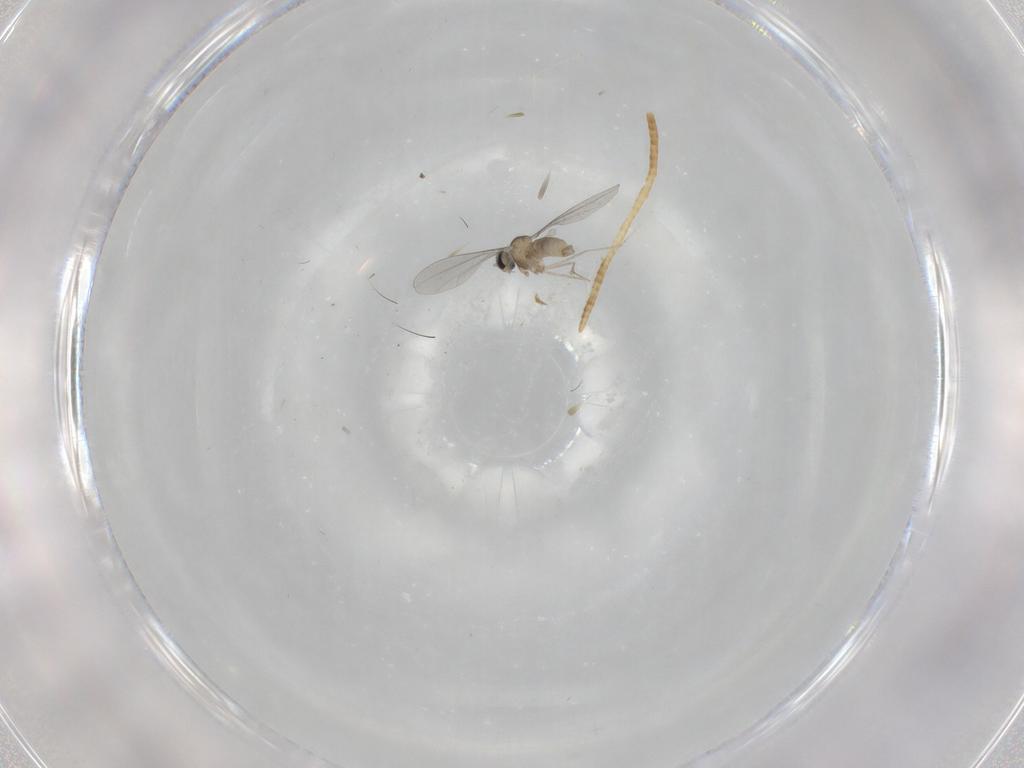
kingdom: Animalia
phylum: Arthropoda
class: Insecta
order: Diptera
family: Cecidomyiidae
